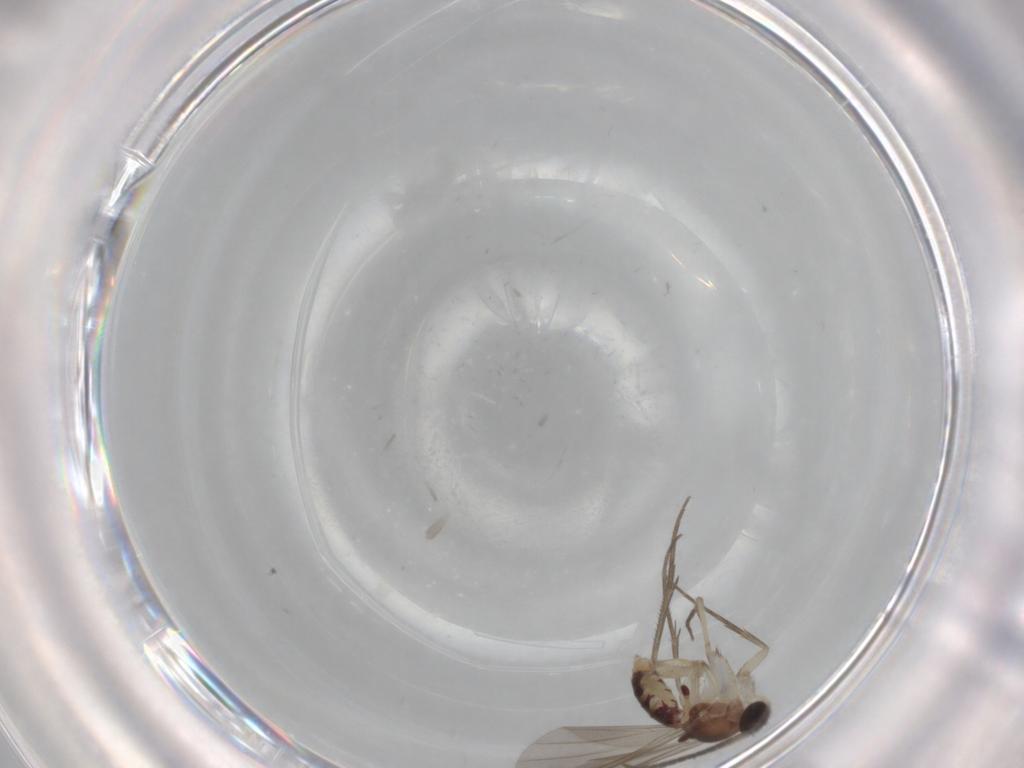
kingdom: Animalia
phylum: Arthropoda
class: Insecta
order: Diptera
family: Mycetophilidae
